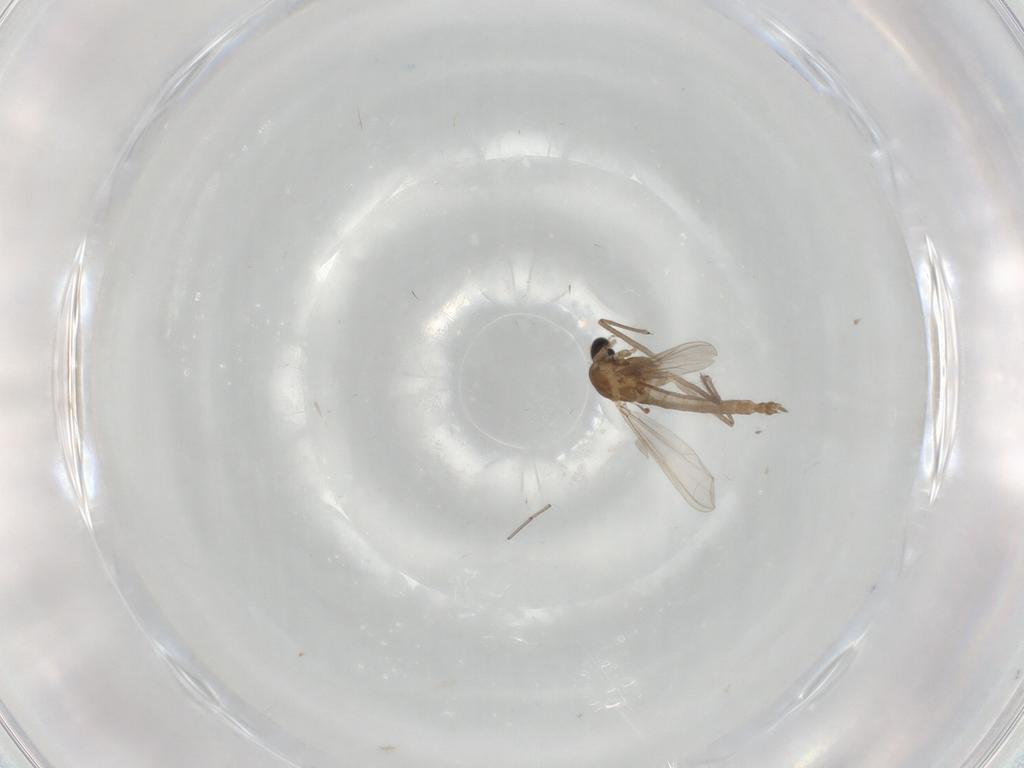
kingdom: Animalia
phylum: Arthropoda
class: Insecta
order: Diptera
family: Chironomidae
